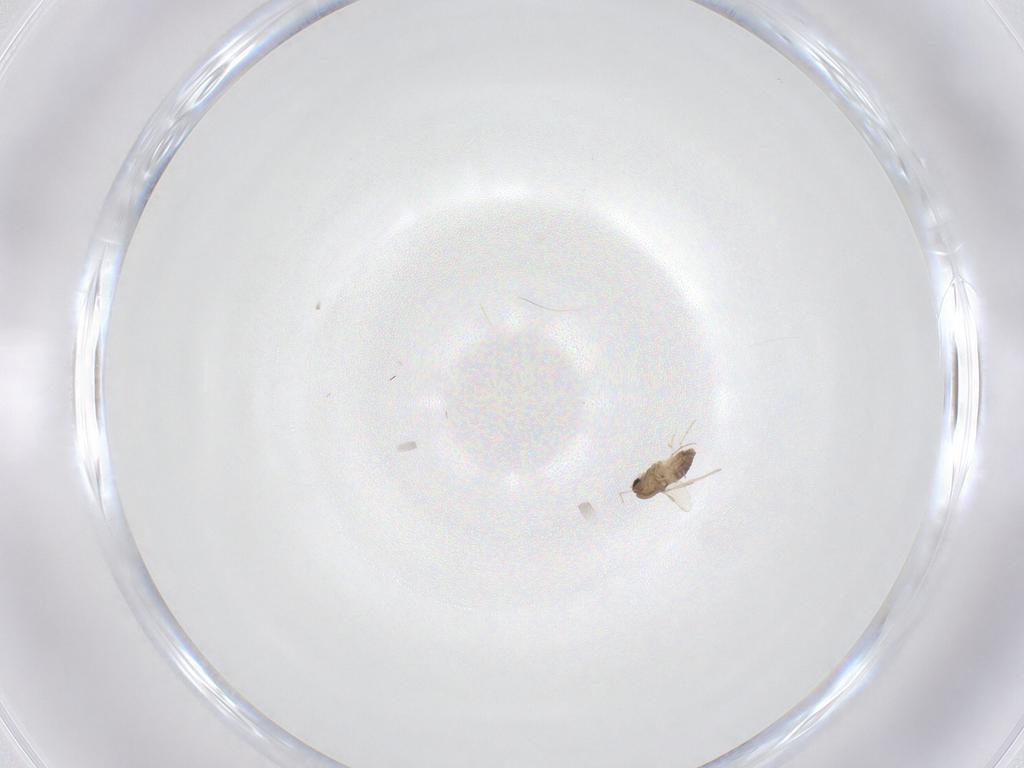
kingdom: Animalia
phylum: Arthropoda
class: Insecta
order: Diptera
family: Chironomidae
